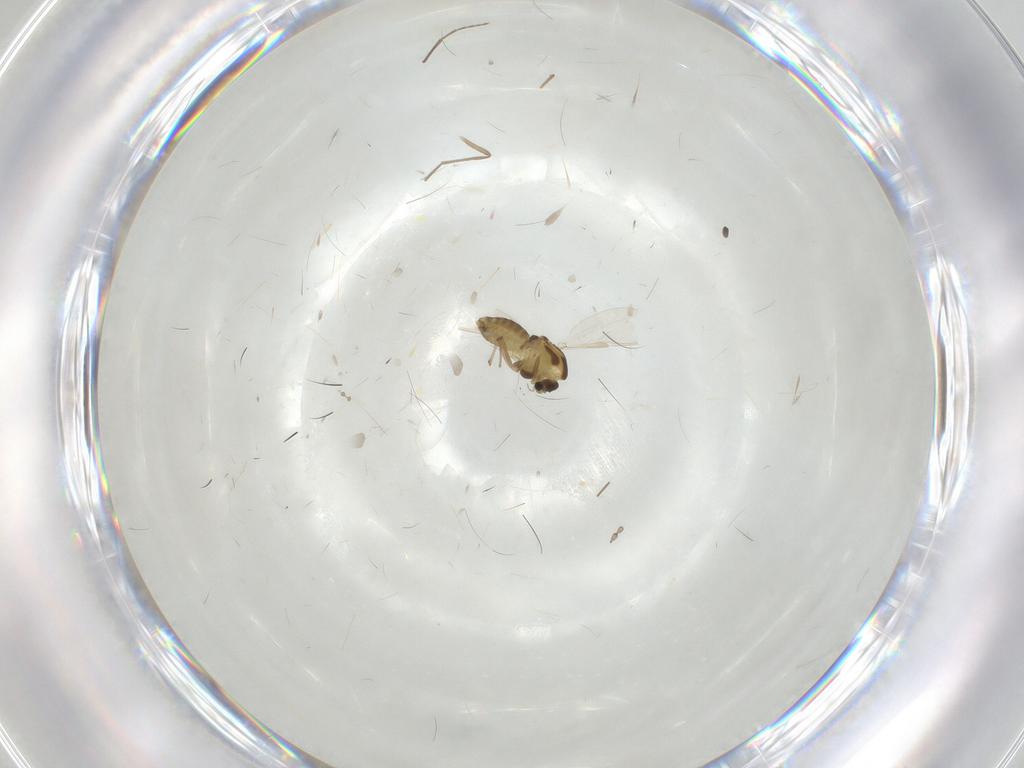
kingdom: Animalia
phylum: Arthropoda
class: Insecta
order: Diptera
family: Chironomidae
